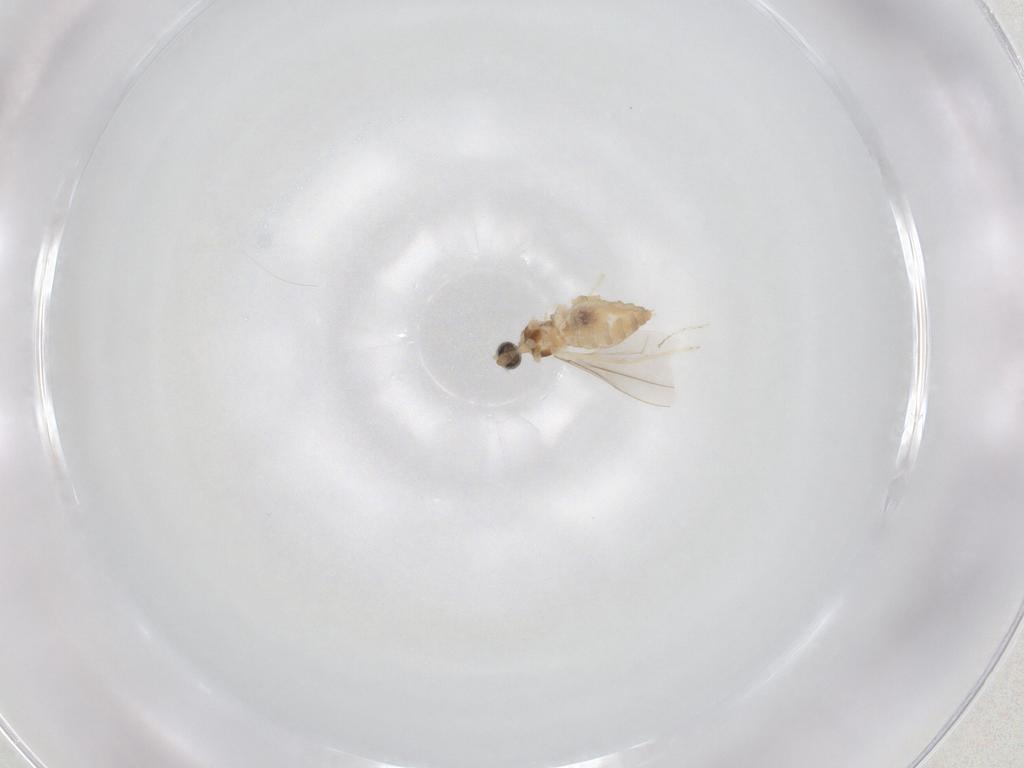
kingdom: Animalia
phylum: Arthropoda
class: Insecta
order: Diptera
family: Cecidomyiidae
